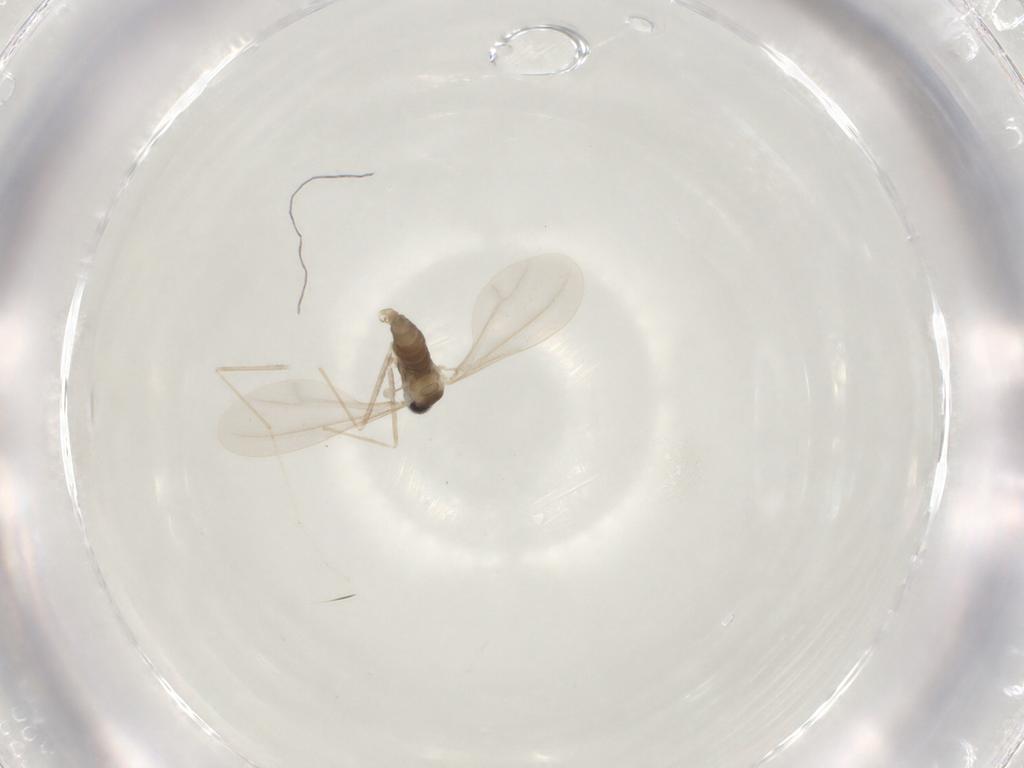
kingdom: Animalia
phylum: Arthropoda
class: Insecta
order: Diptera
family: Cecidomyiidae
